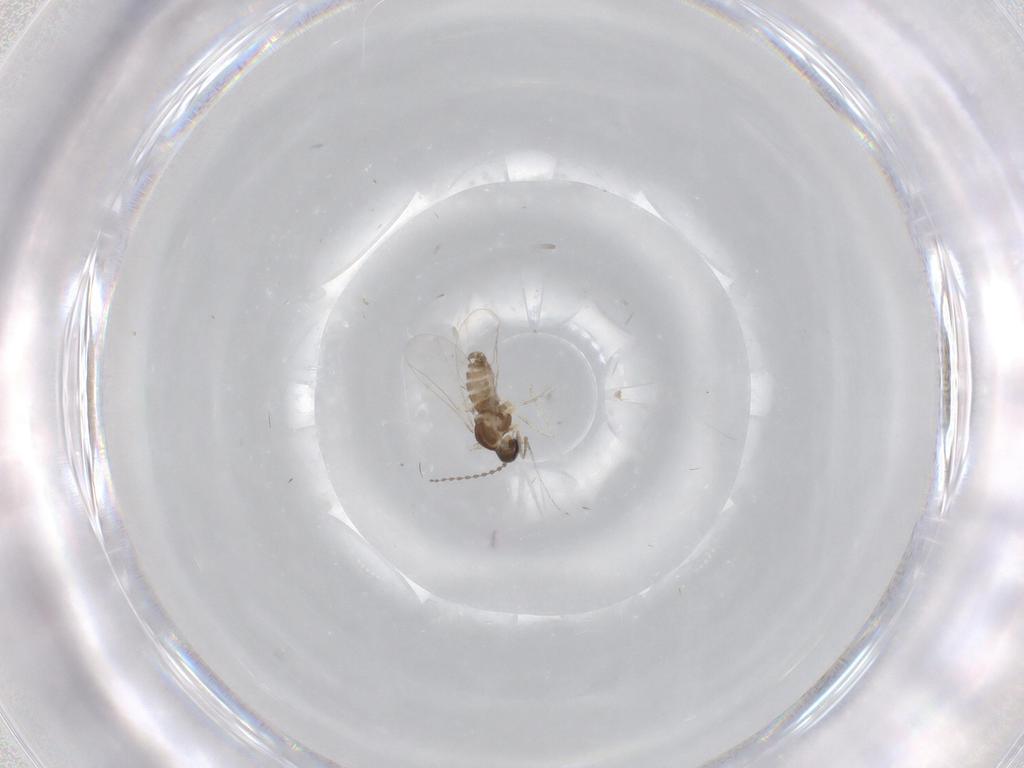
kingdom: Animalia
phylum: Arthropoda
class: Insecta
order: Diptera
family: Cecidomyiidae
